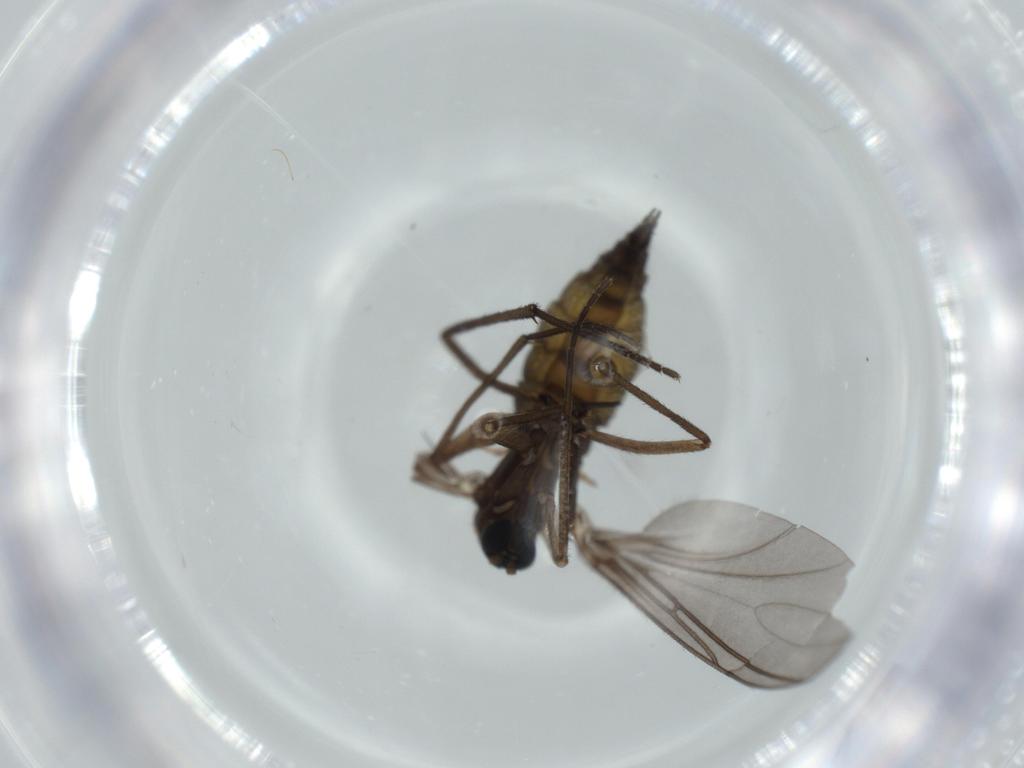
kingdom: Animalia
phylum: Arthropoda
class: Insecta
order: Diptera
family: Sciaridae
